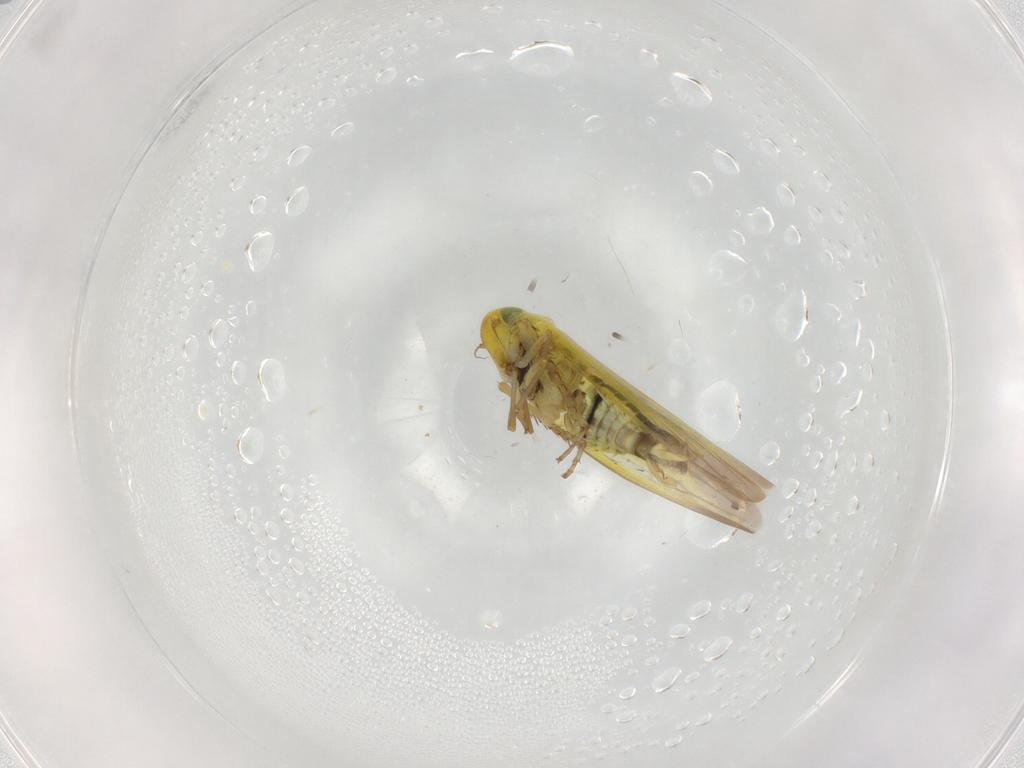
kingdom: Animalia
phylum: Arthropoda
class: Insecta
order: Hemiptera
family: Cicadellidae
